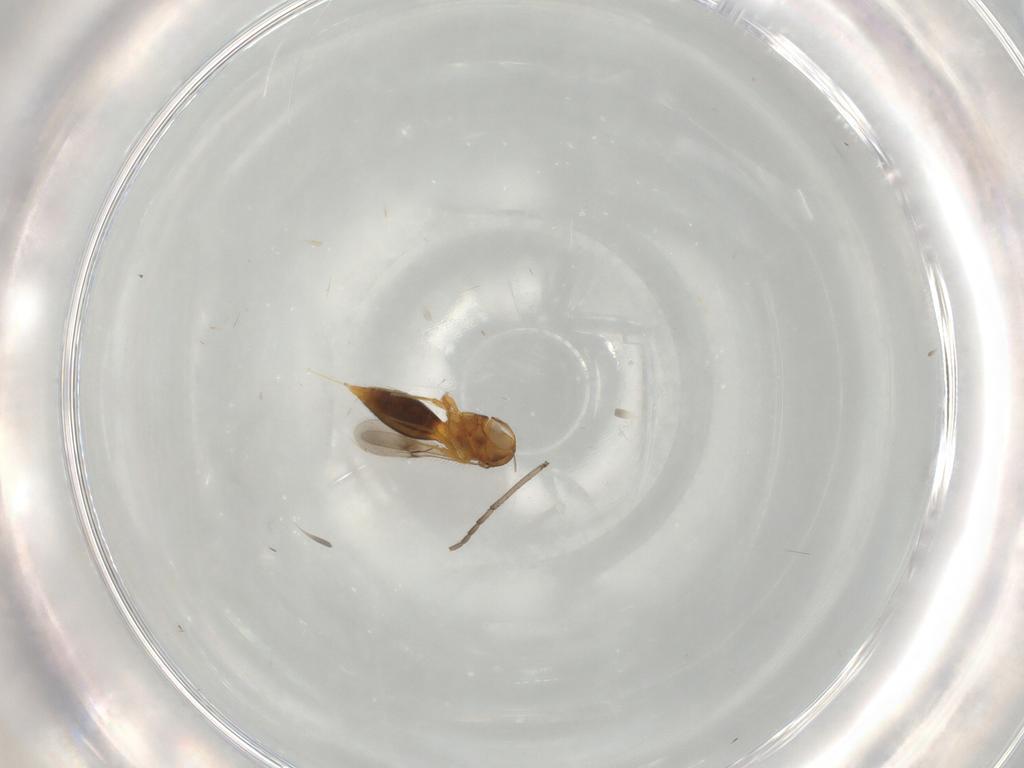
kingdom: Animalia
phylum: Arthropoda
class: Insecta
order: Hymenoptera
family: Scelionidae
